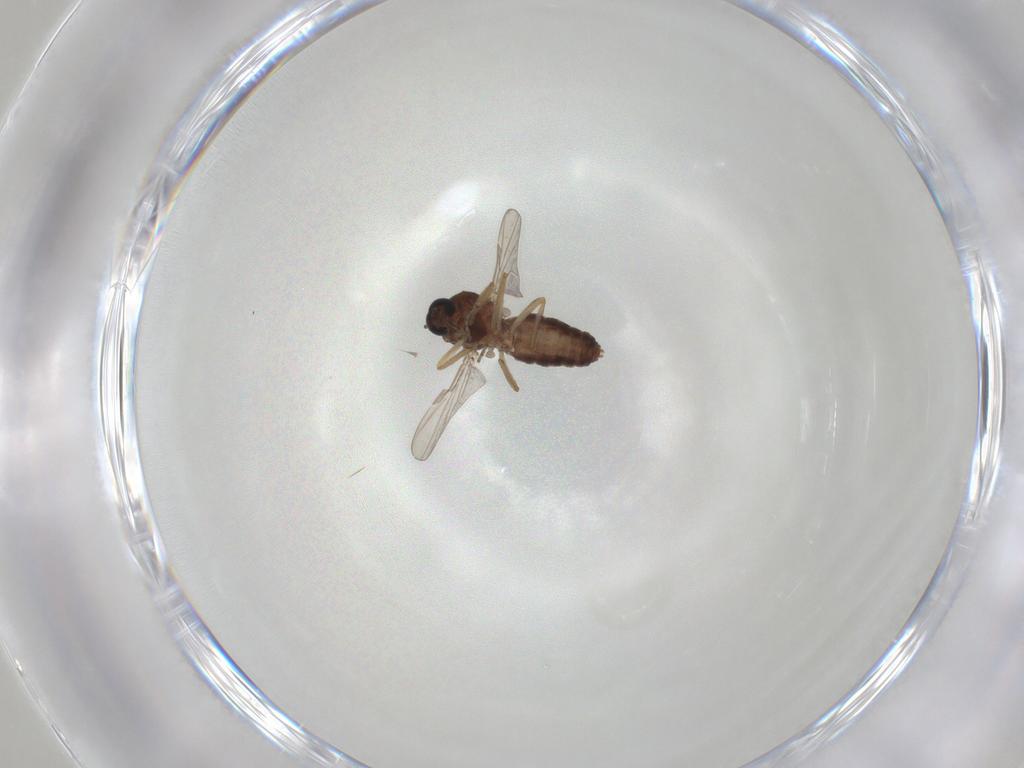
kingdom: Animalia
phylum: Arthropoda
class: Insecta
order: Diptera
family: Ceratopogonidae
